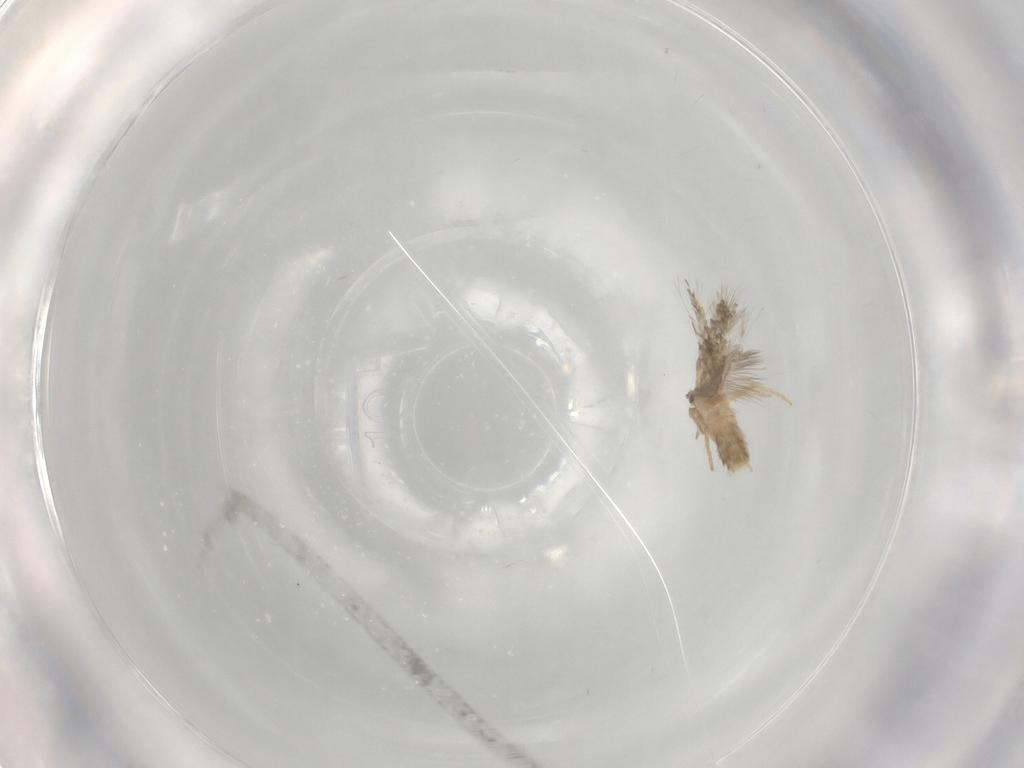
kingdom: Animalia
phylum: Arthropoda
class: Insecta
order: Lepidoptera
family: Nepticulidae
